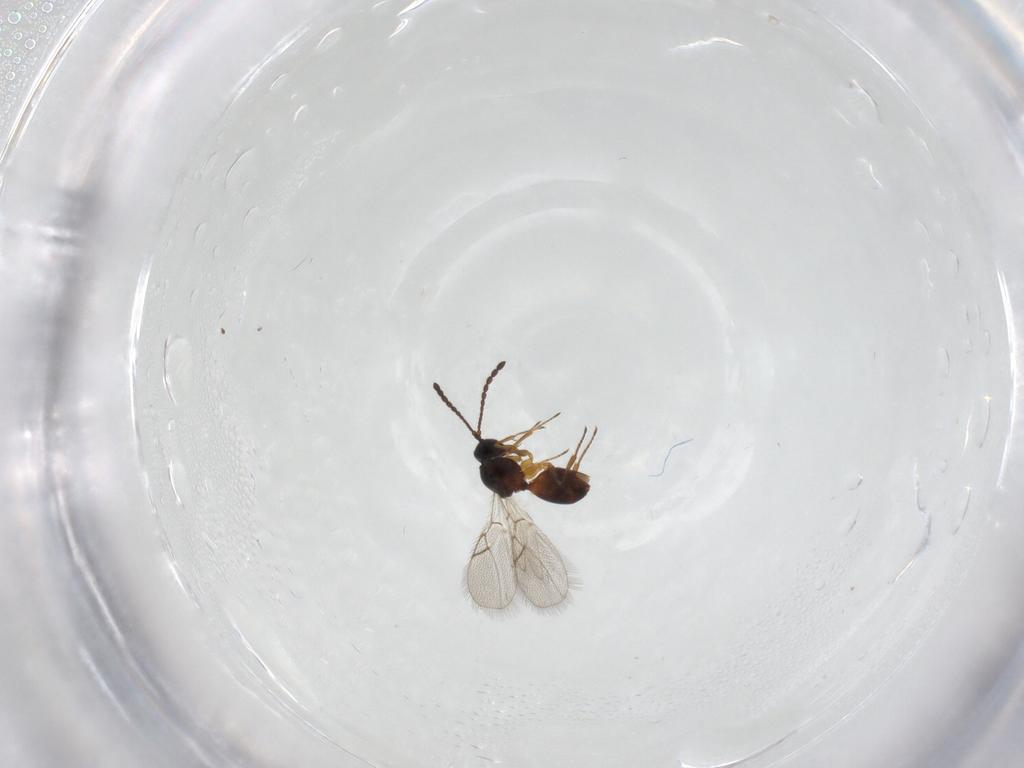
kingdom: Animalia
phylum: Arthropoda
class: Insecta
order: Hymenoptera
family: Figitidae
